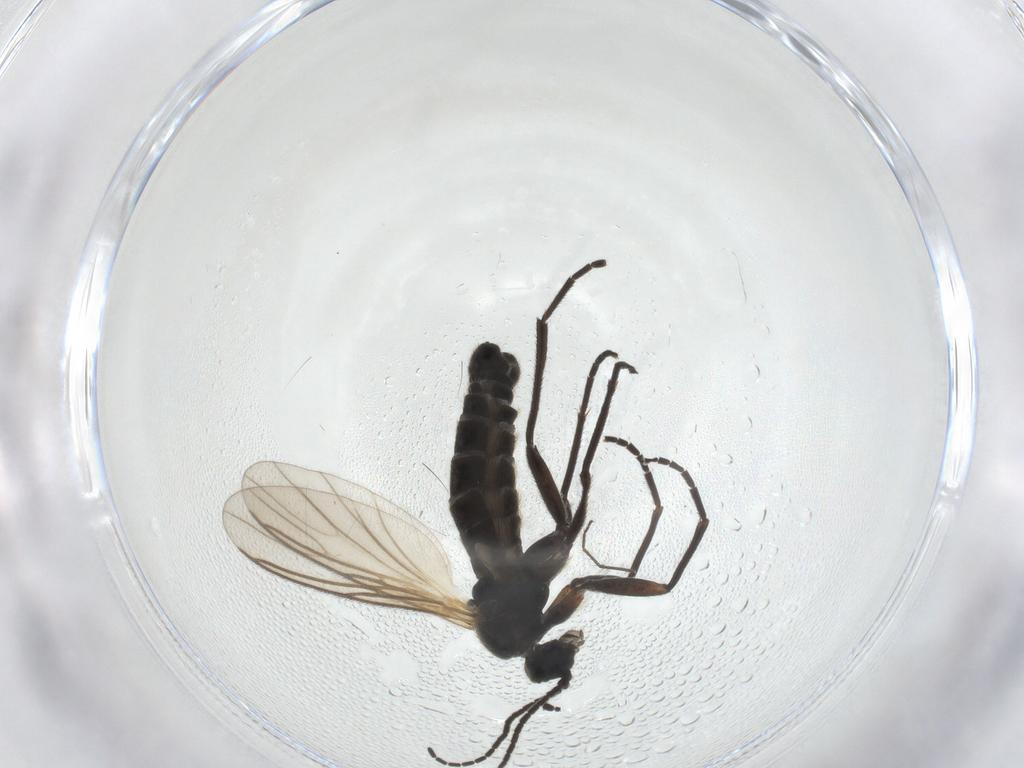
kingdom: Animalia
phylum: Arthropoda
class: Insecta
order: Diptera
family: Sciaridae
